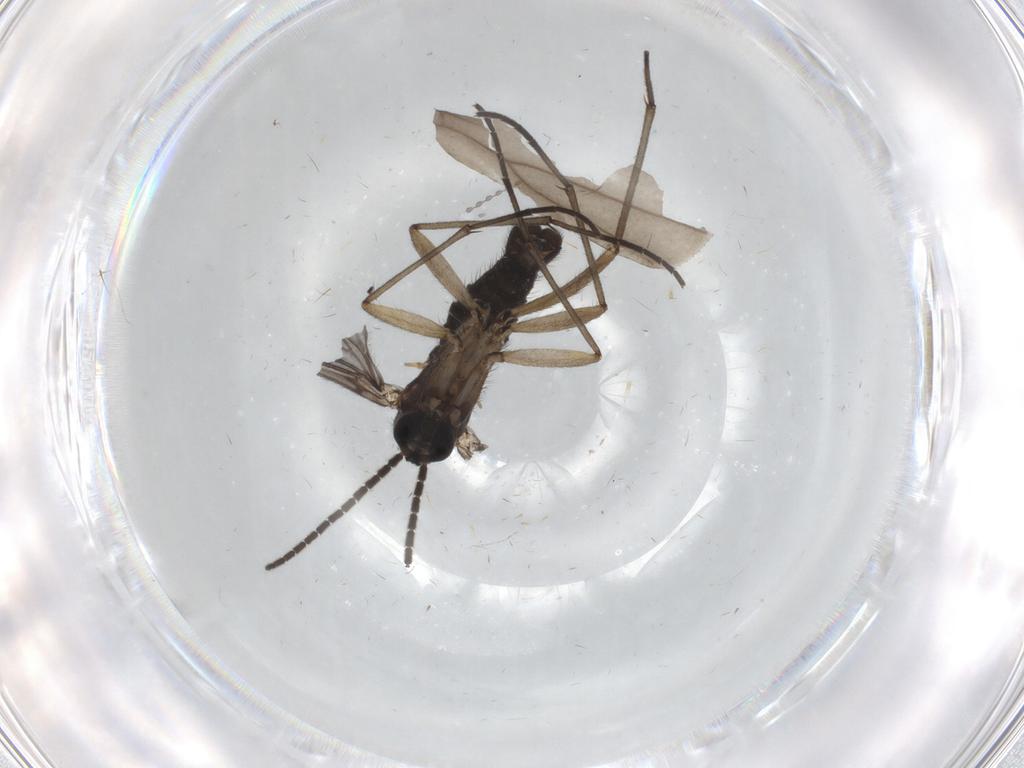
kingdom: Animalia
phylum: Arthropoda
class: Insecta
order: Diptera
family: Sciaridae
